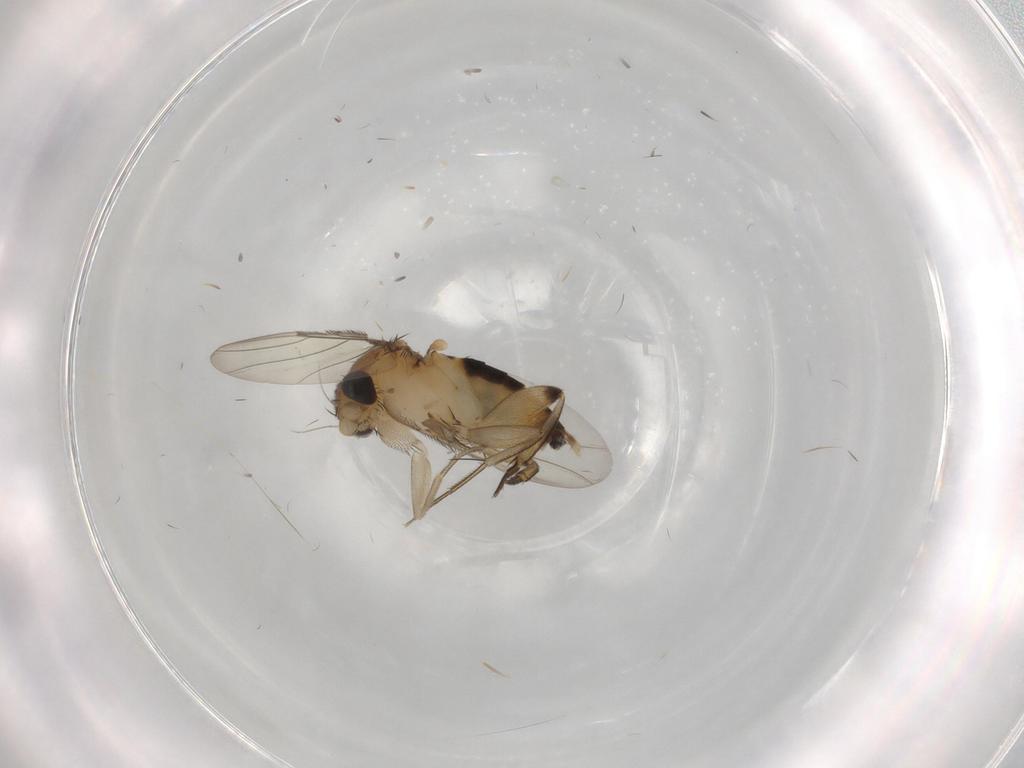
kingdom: Animalia
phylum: Arthropoda
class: Insecta
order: Diptera
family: Phoridae
